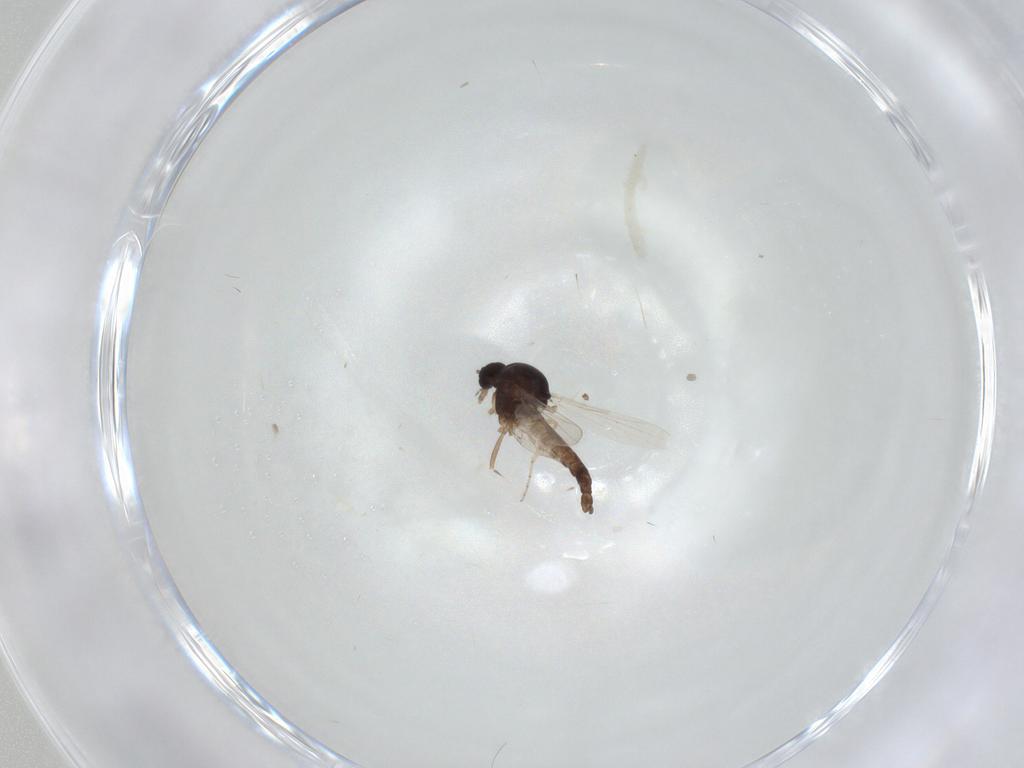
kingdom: Animalia
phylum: Arthropoda
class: Insecta
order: Diptera
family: Ceratopogonidae
